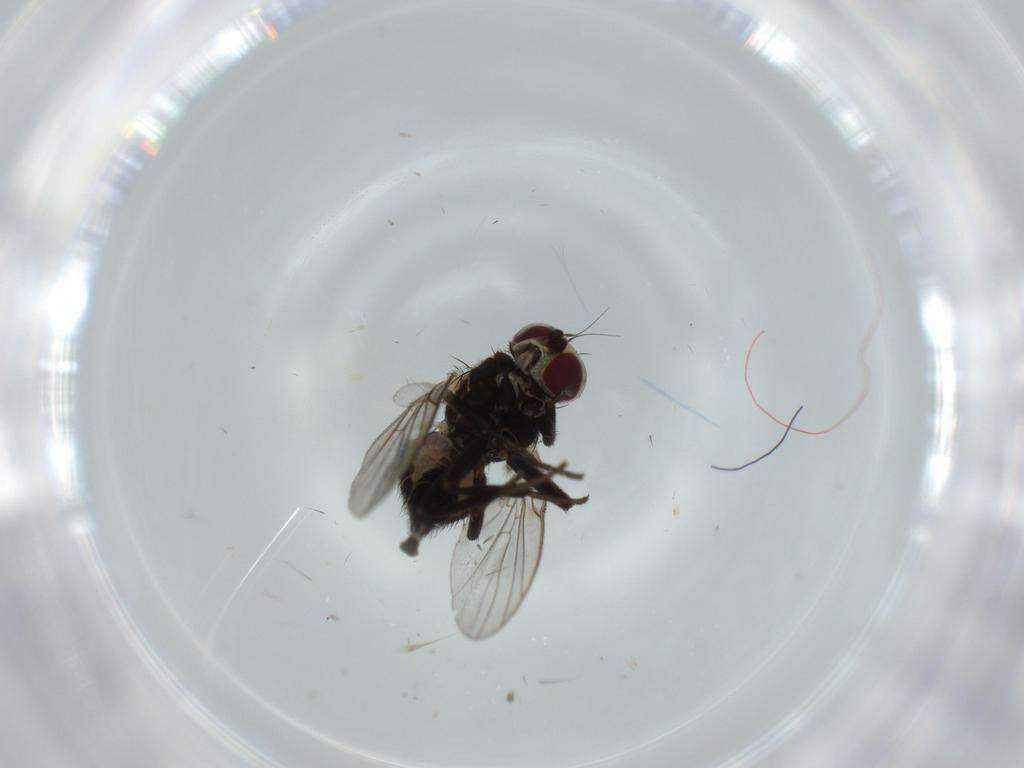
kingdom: Animalia
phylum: Arthropoda
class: Insecta
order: Diptera
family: Agromyzidae
